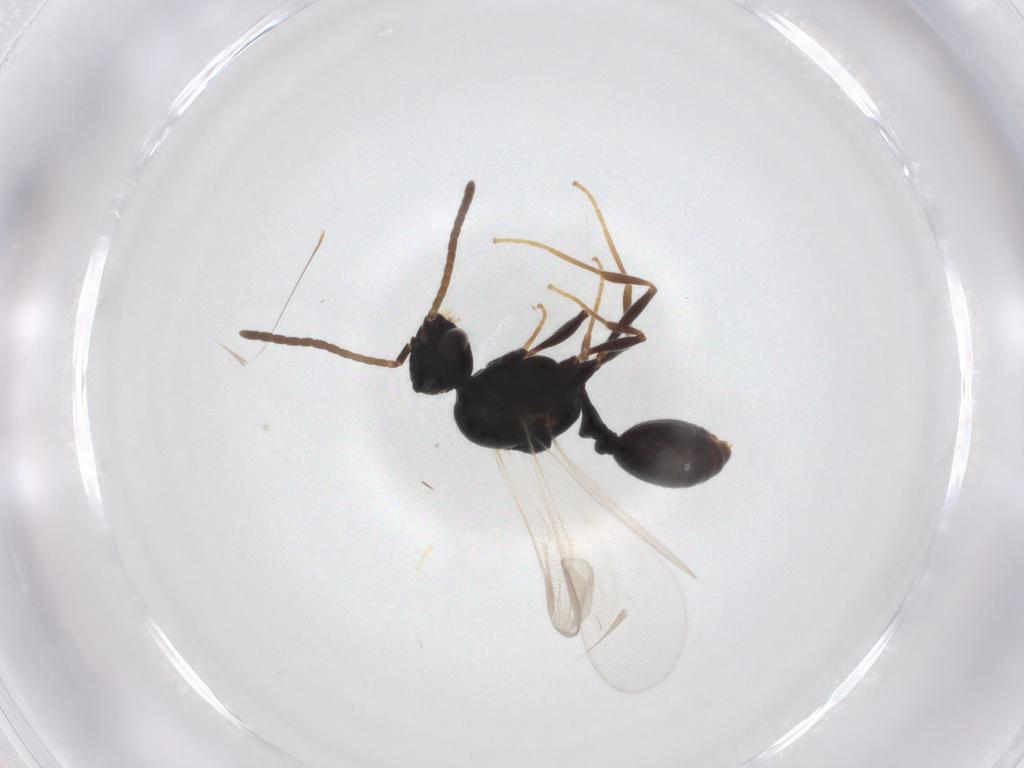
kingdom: Animalia
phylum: Arthropoda
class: Insecta
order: Hymenoptera
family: Formicidae
